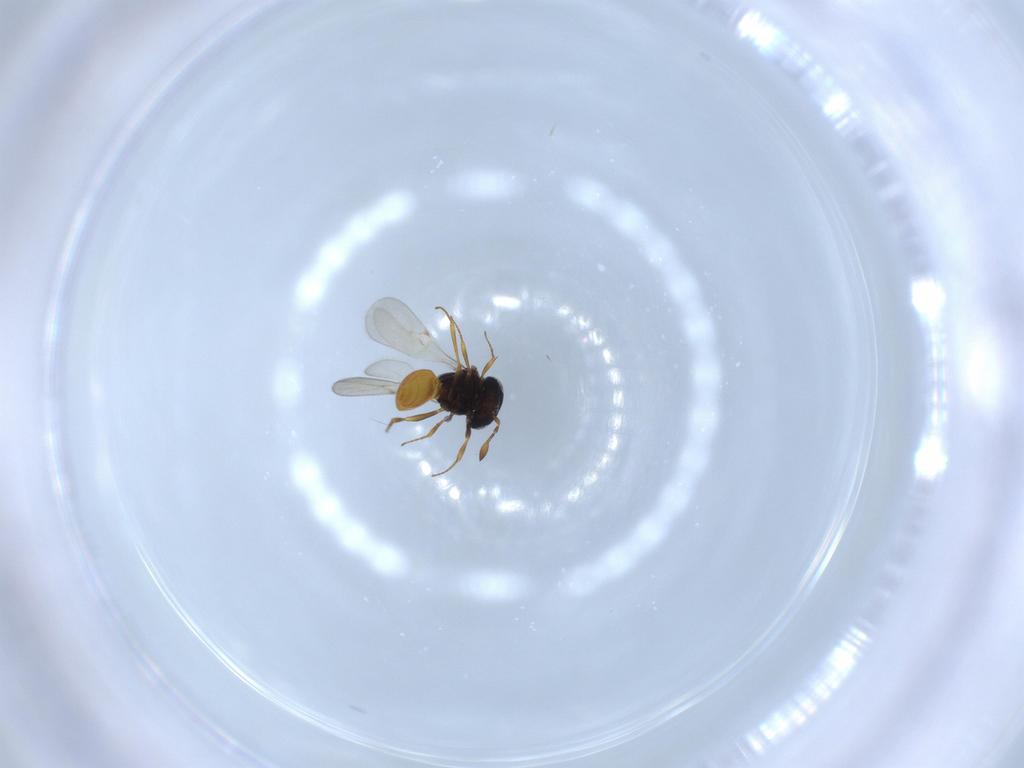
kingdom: Animalia
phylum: Arthropoda
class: Insecta
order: Hymenoptera
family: Scelionidae
